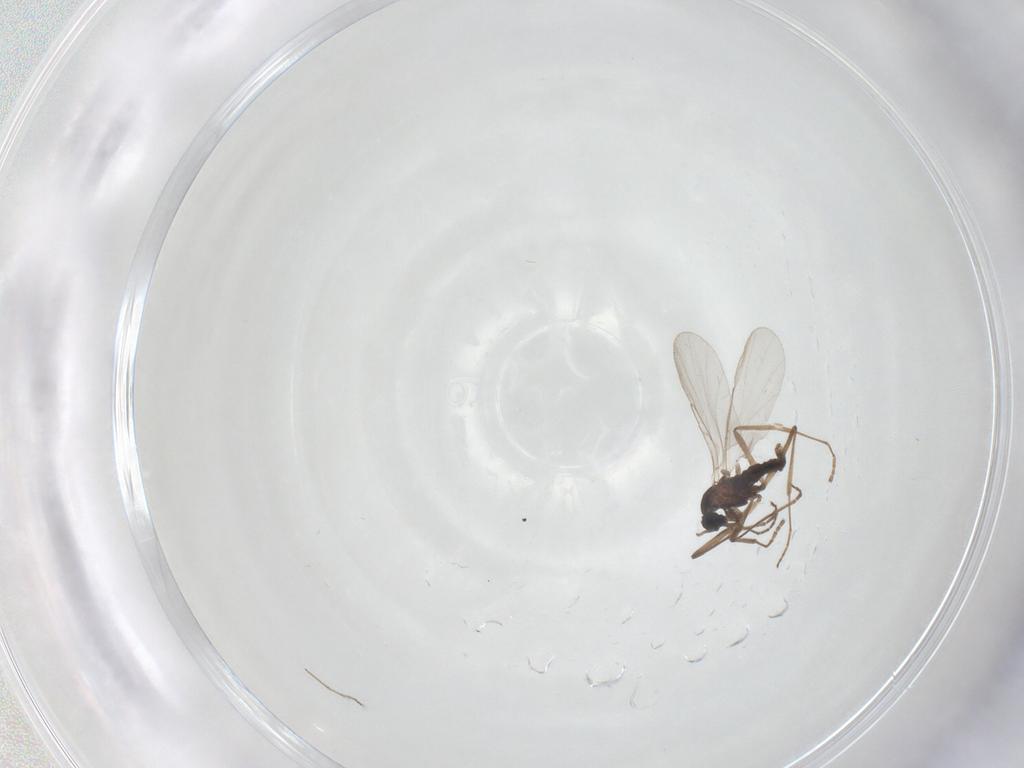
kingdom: Animalia
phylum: Arthropoda
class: Insecta
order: Diptera
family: Cecidomyiidae
